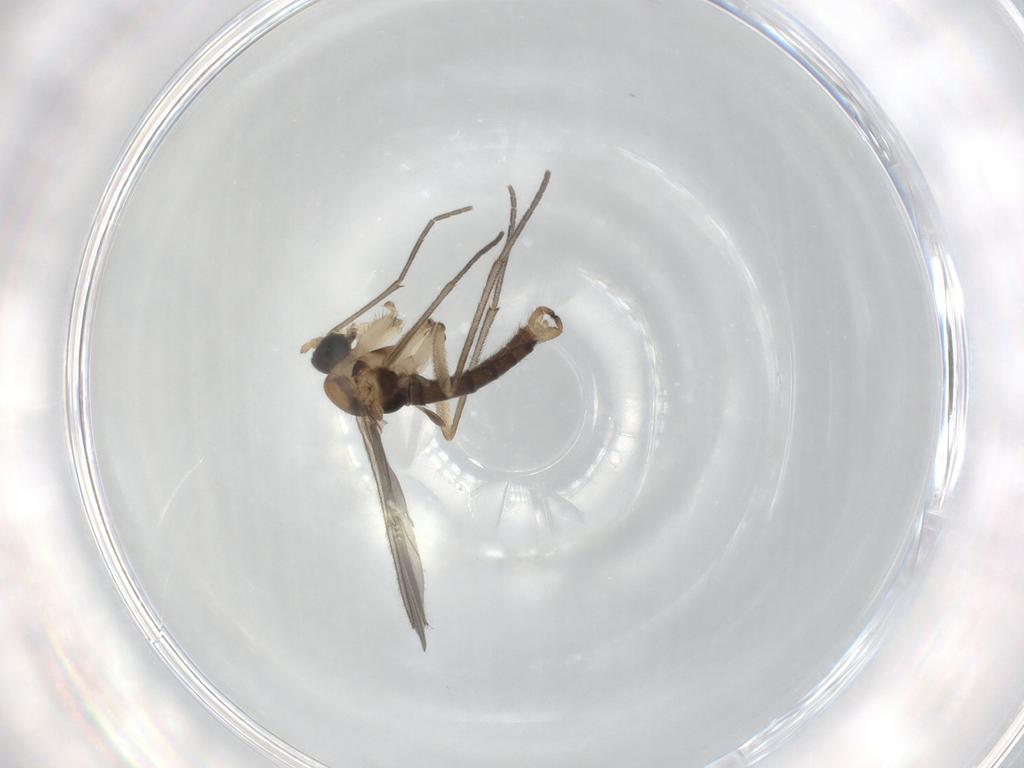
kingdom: Animalia
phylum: Arthropoda
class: Insecta
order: Diptera
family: Sciaridae
